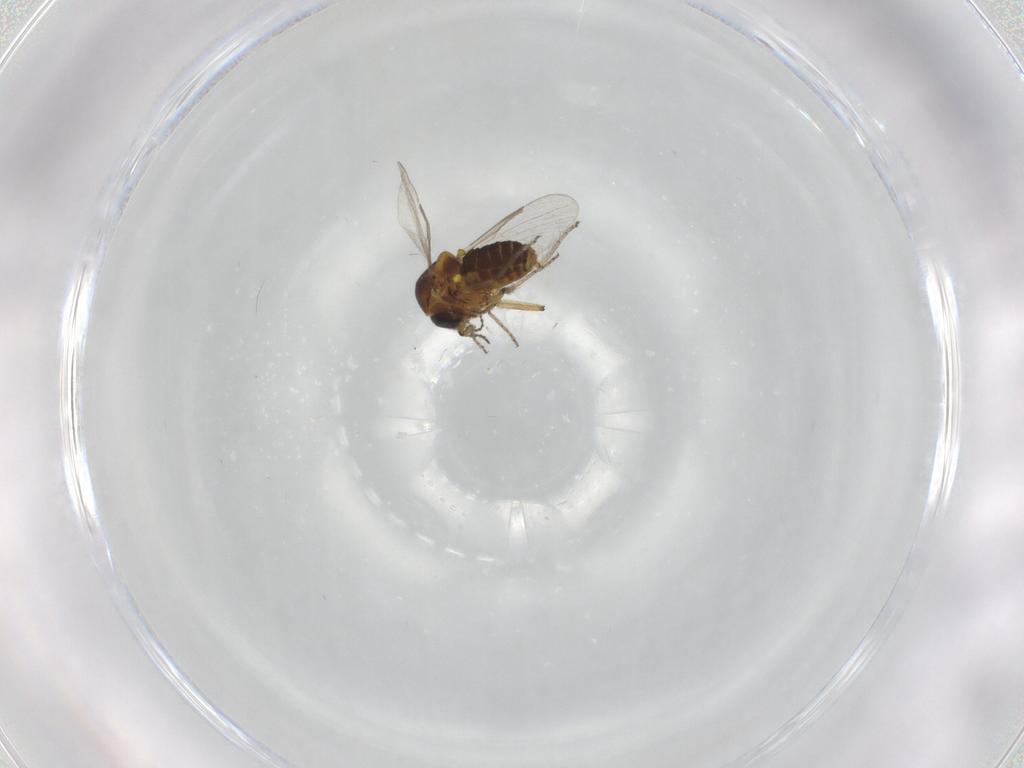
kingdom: Animalia
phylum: Arthropoda
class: Insecta
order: Diptera
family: Ceratopogonidae
